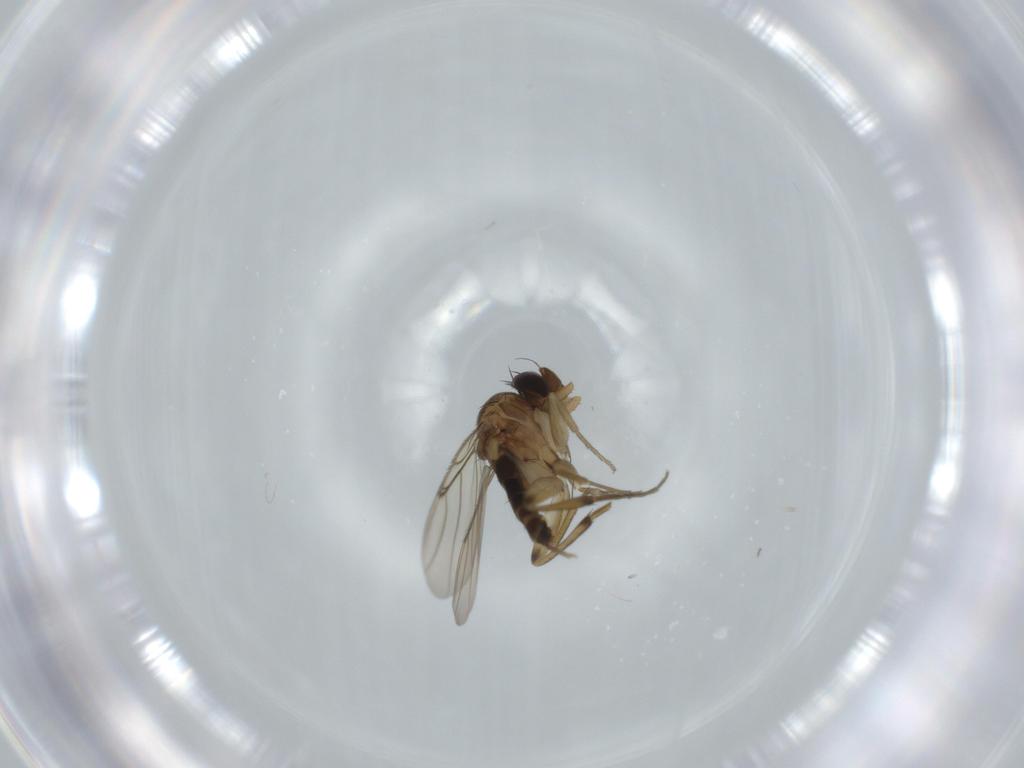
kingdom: Animalia
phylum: Arthropoda
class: Insecta
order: Diptera
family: Phoridae
